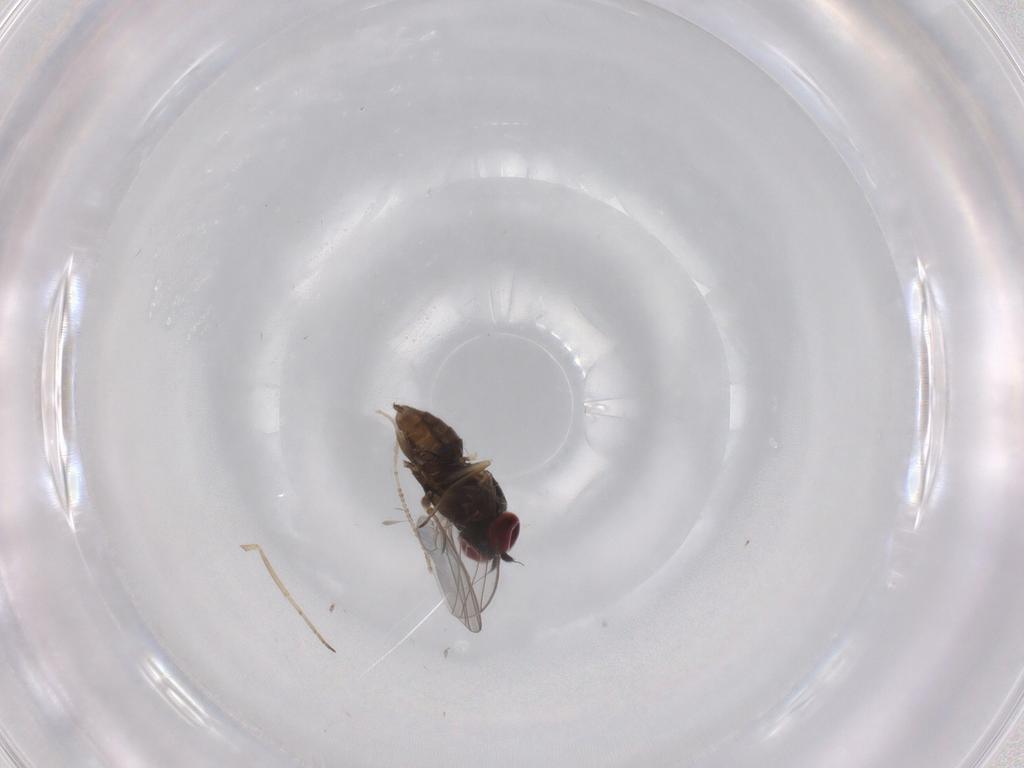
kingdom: Animalia
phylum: Arthropoda
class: Insecta
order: Diptera
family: Dolichopodidae
